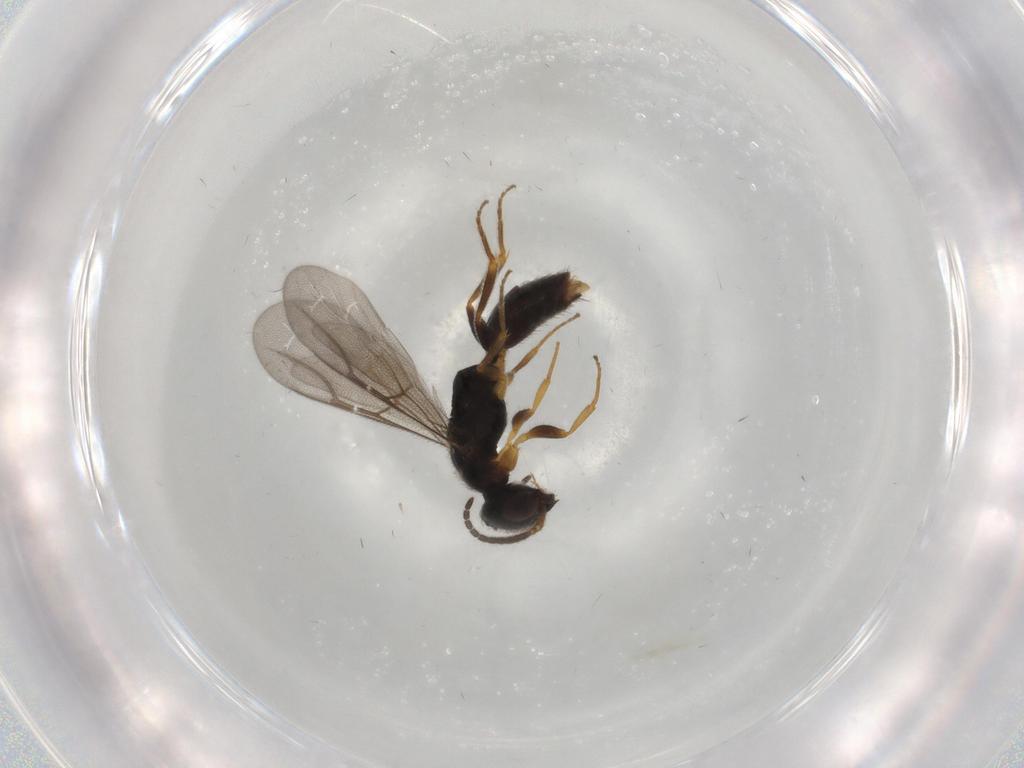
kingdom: Animalia
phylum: Arthropoda
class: Insecta
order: Hymenoptera
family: Bethylidae
